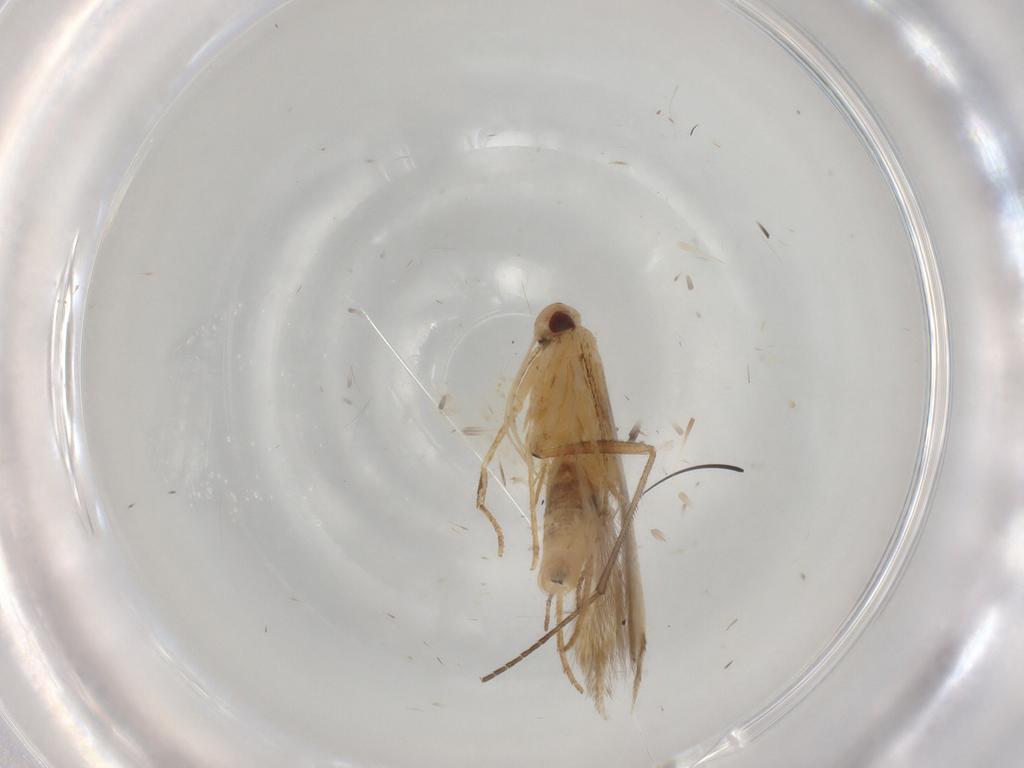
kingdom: Animalia
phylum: Arthropoda
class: Insecta
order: Lepidoptera
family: Cosmopterigidae
